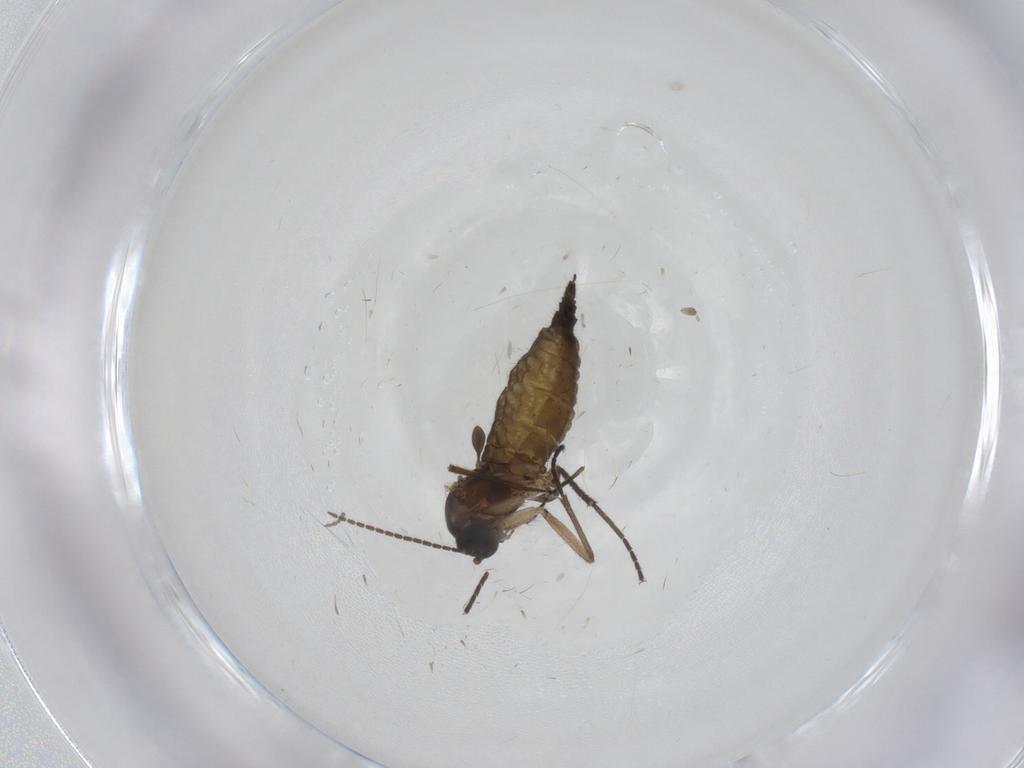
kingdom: Animalia
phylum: Arthropoda
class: Insecta
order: Diptera
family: Sciaridae
